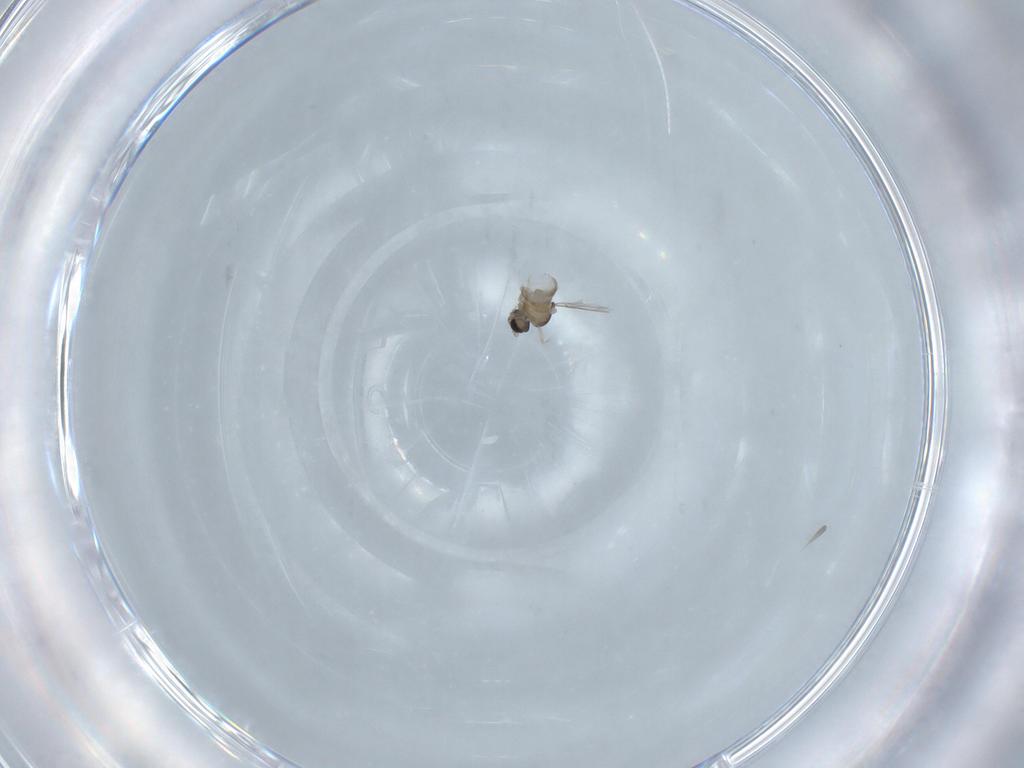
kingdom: Animalia
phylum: Arthropoda
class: Insecta
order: Diptera
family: Cecidomyiidae
